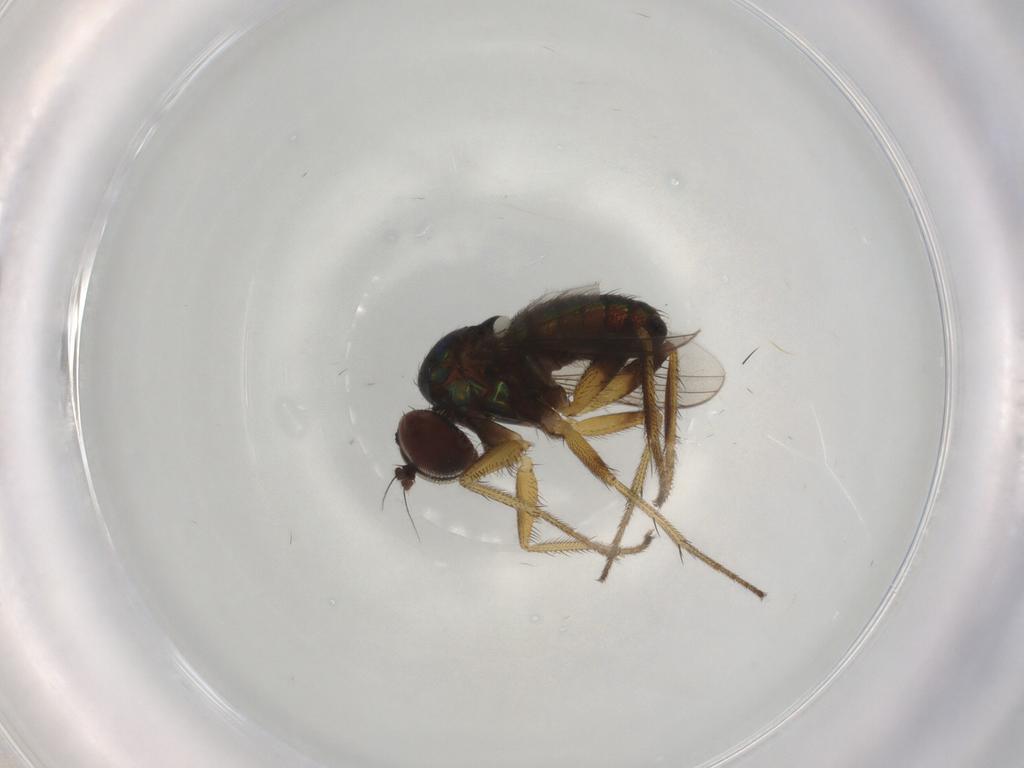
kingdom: Animalia
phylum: Arthropoda
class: Insecta
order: Diptera
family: Dolichopodidae
